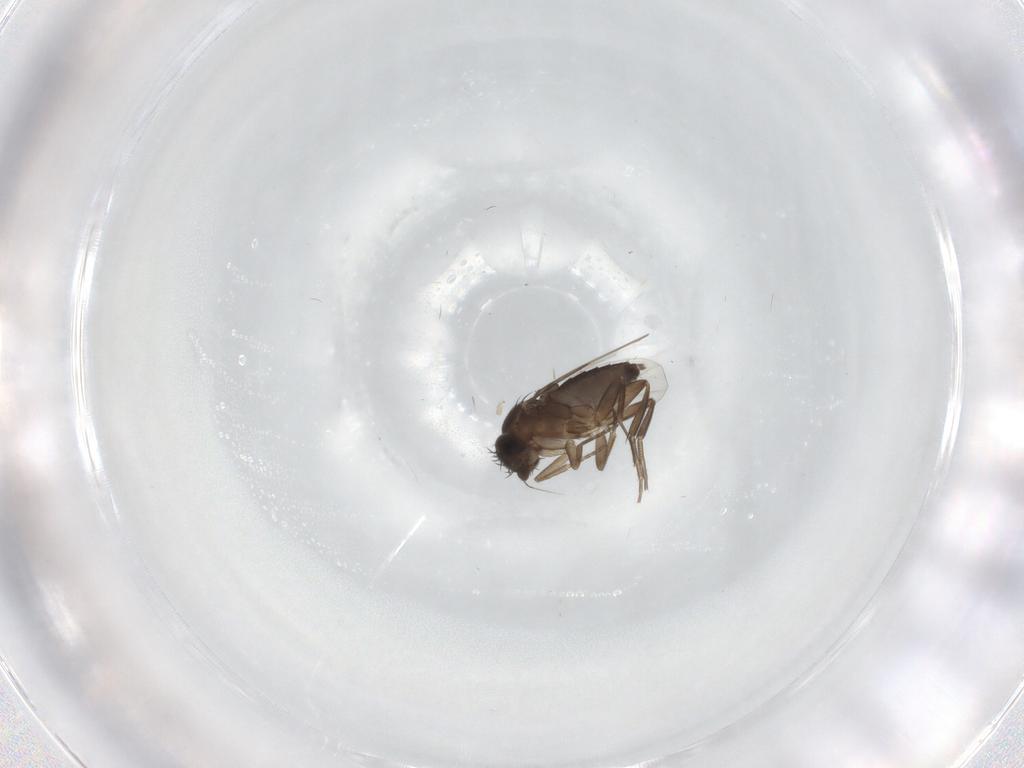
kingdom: Animalia
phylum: Arthropoda
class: Insecta
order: Diptera
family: Phoridae
